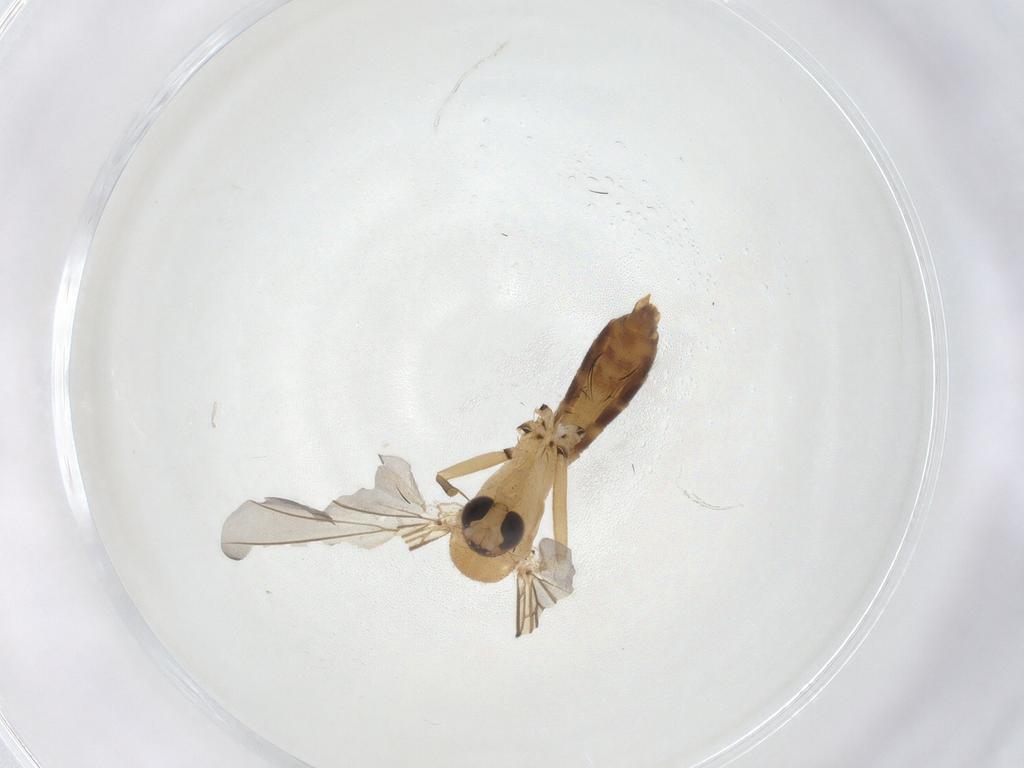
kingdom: Animalia
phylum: Arthropoda
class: Insecta
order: Diptera
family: Mycetophilidae
